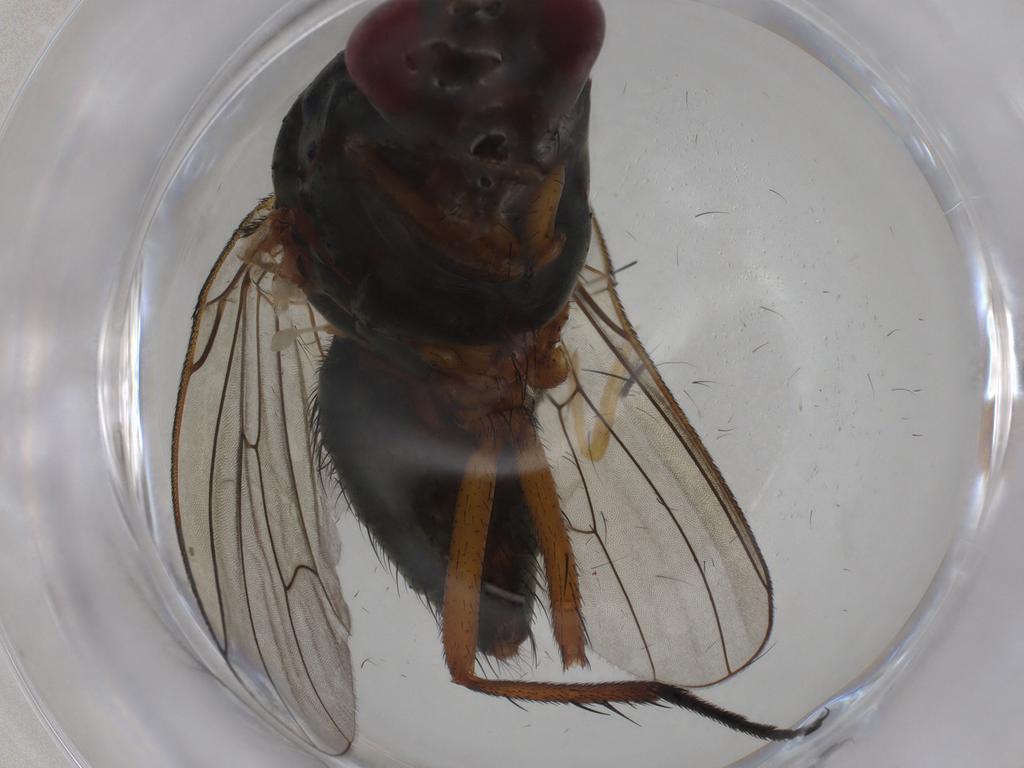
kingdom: Animalia
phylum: Arthropoda
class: Insecta
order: Diptera
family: Anthomyiidae
